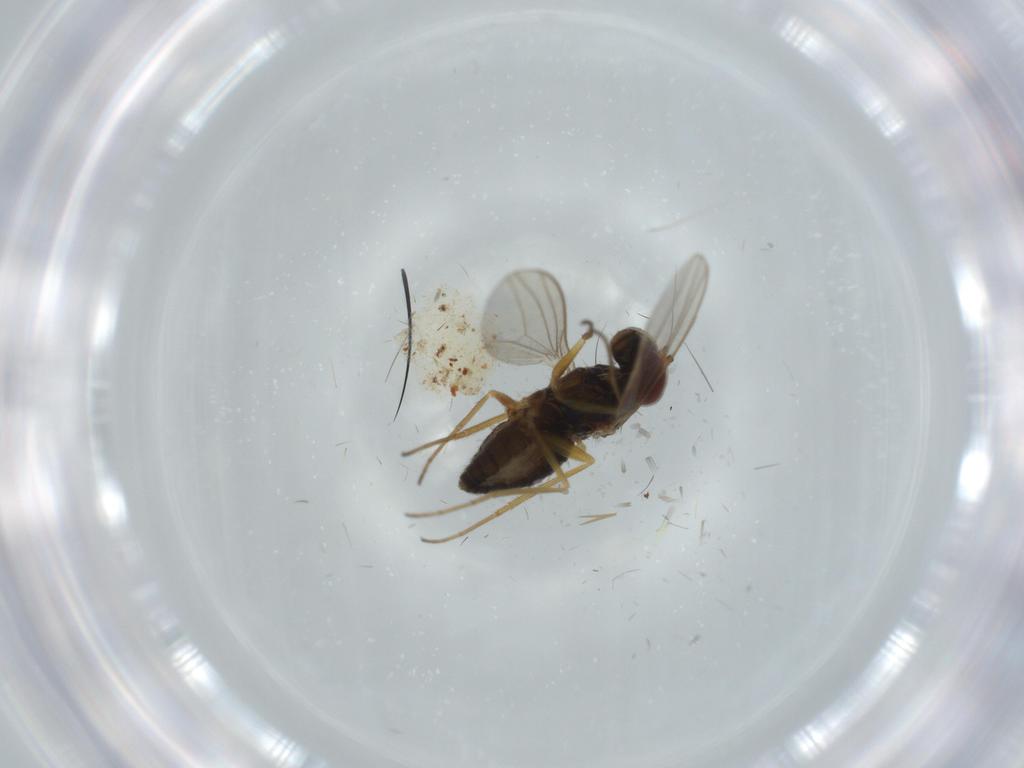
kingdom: Animalia
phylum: Arthropoda
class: Insecta
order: Diptera
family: Dolichopodidae
